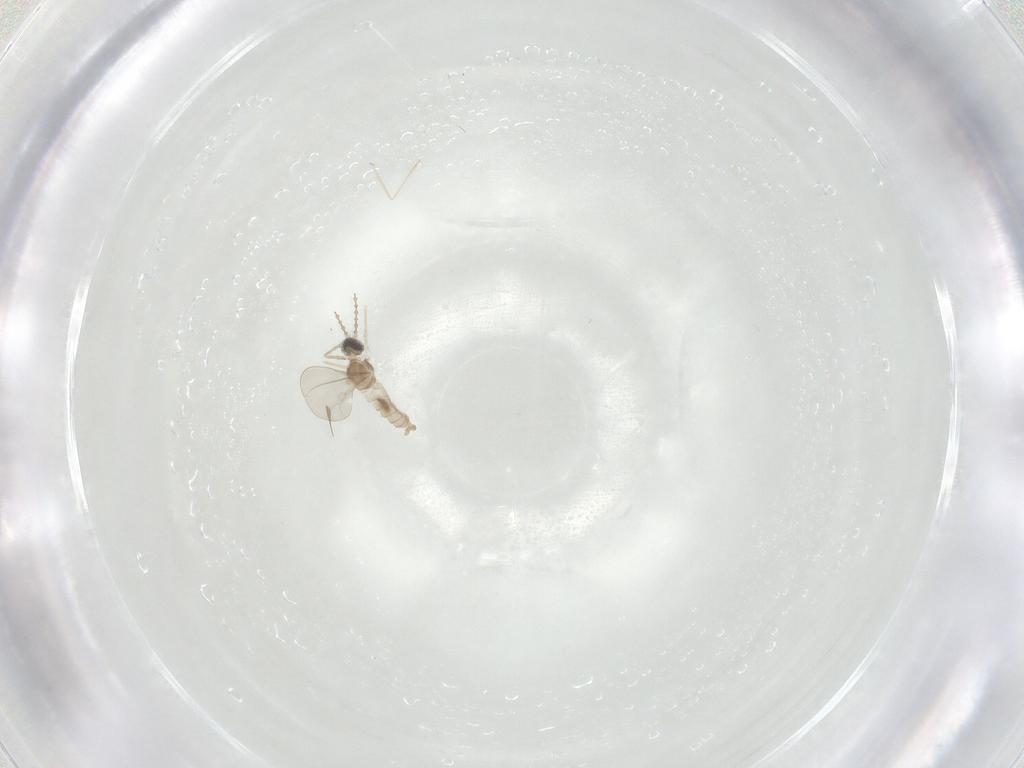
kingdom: Animalia
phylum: Arthropoda
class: Insecta
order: Diptera
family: Cecidomyiidae
